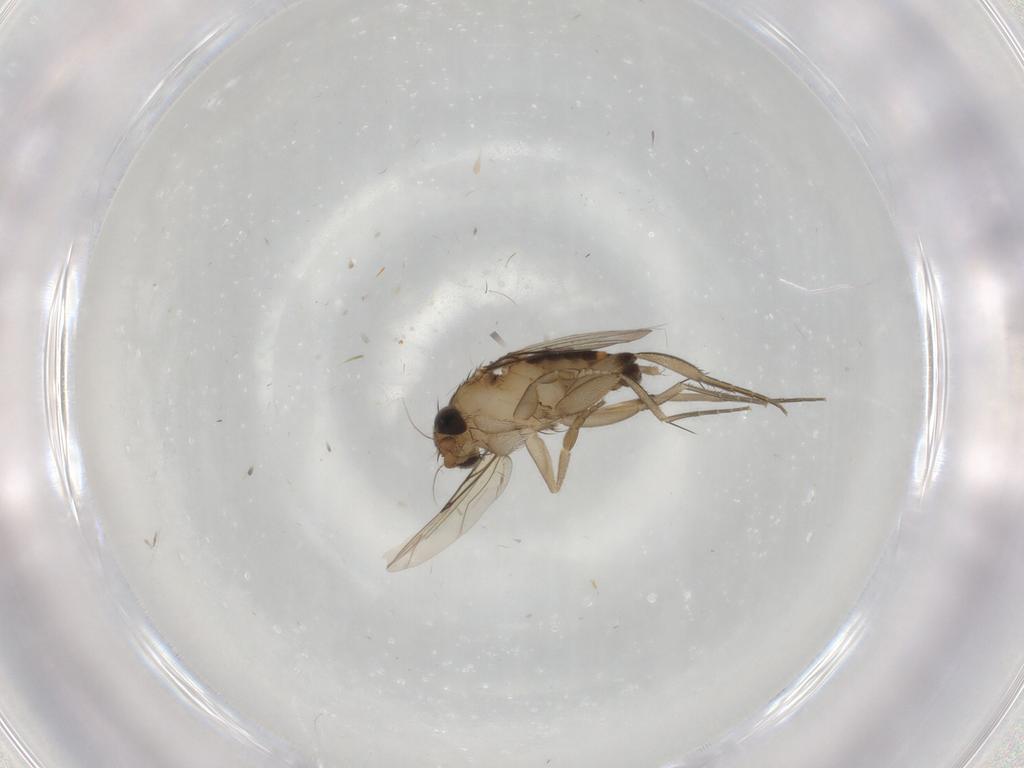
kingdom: Animalia
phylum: Arthropoda
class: Insecta
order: Diptera
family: Phoridae
